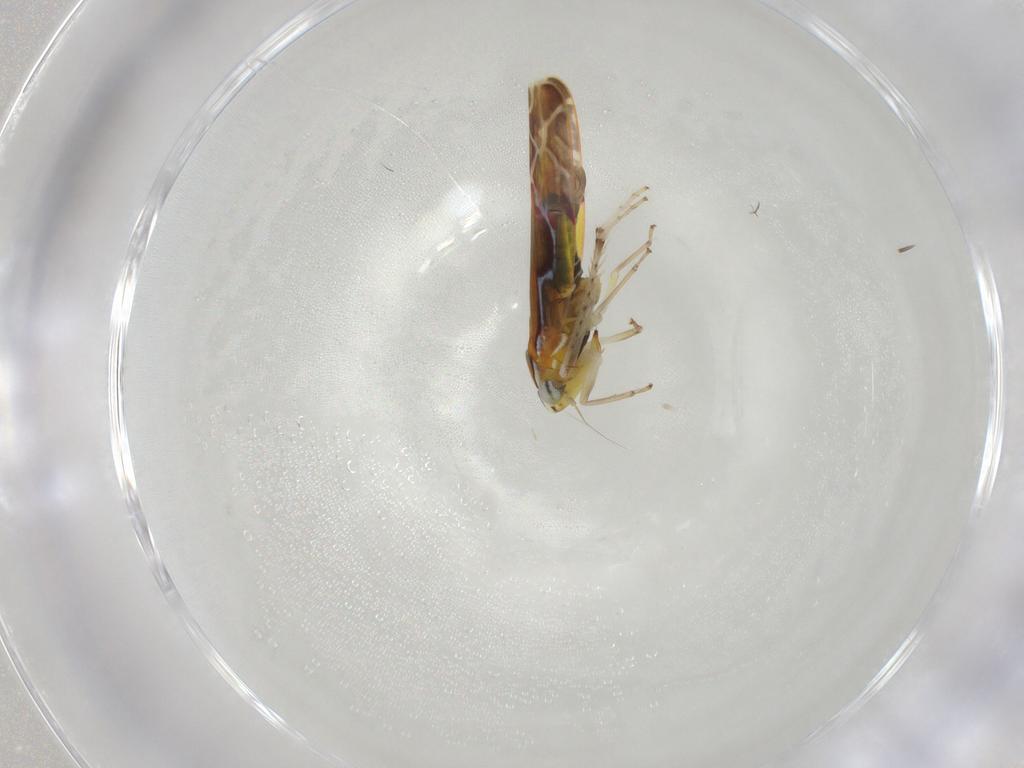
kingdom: Animalia
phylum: Arthropoda
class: Insecta
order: Hemiptera
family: Cicadellidae
